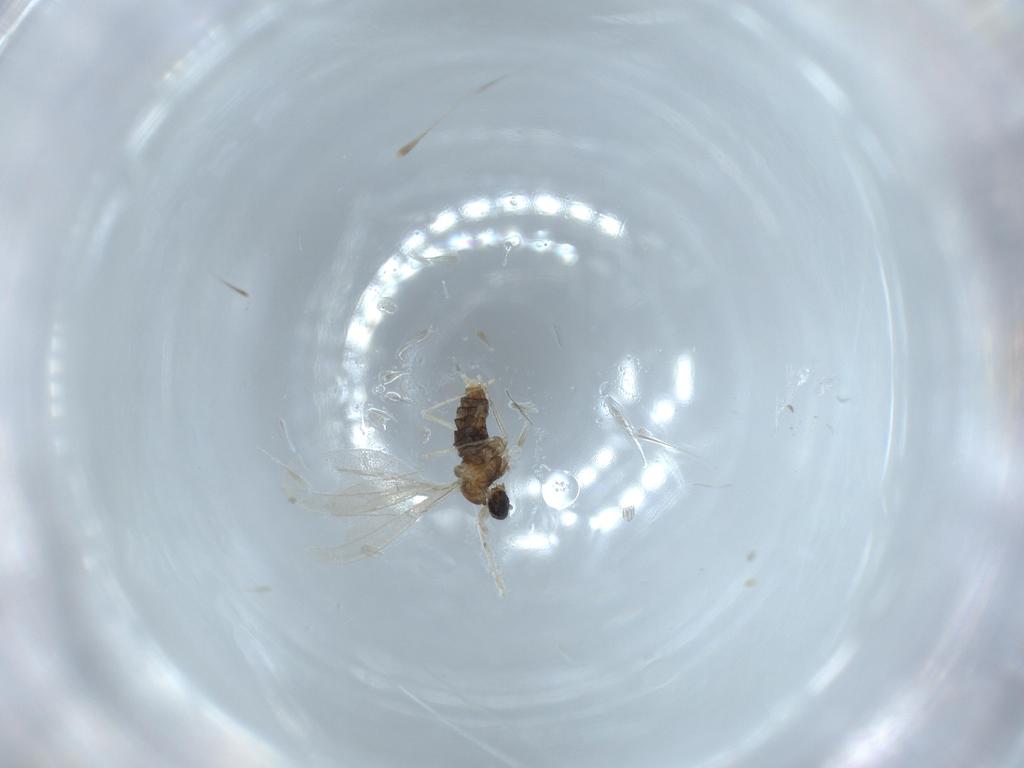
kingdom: Animalia
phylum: Arthropoda
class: Insecta
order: Diptera
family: Cecidomyiidae
